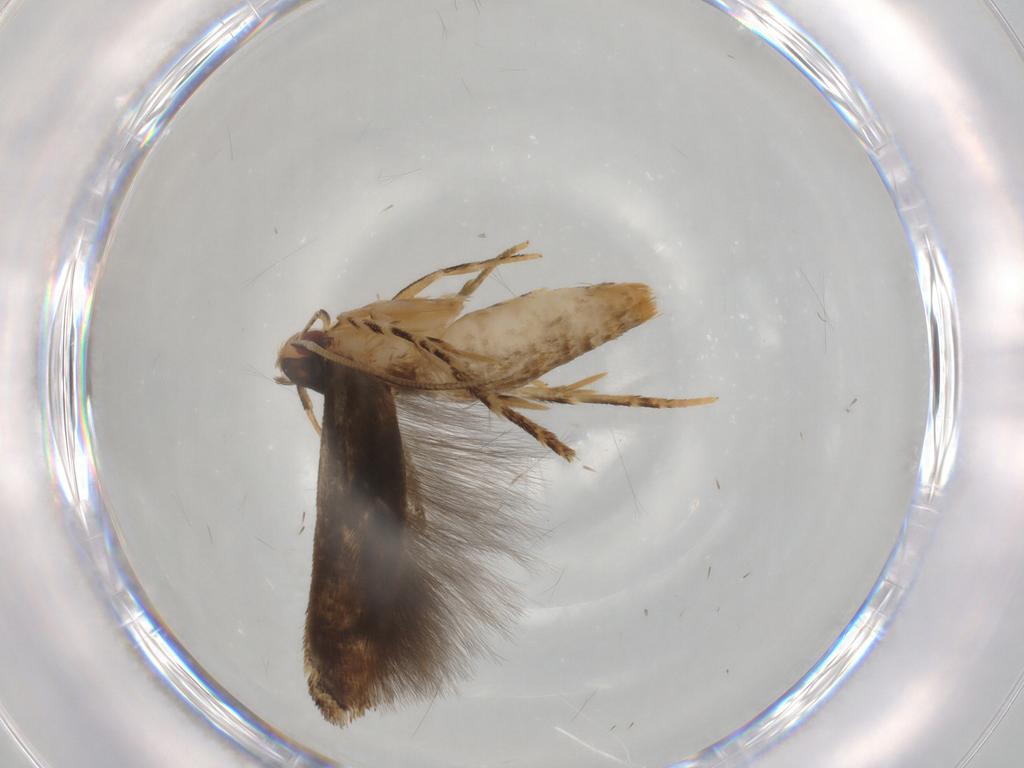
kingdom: Animalia
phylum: Arthropoda
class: Insecta
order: Lepidoptera
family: Momphidae
